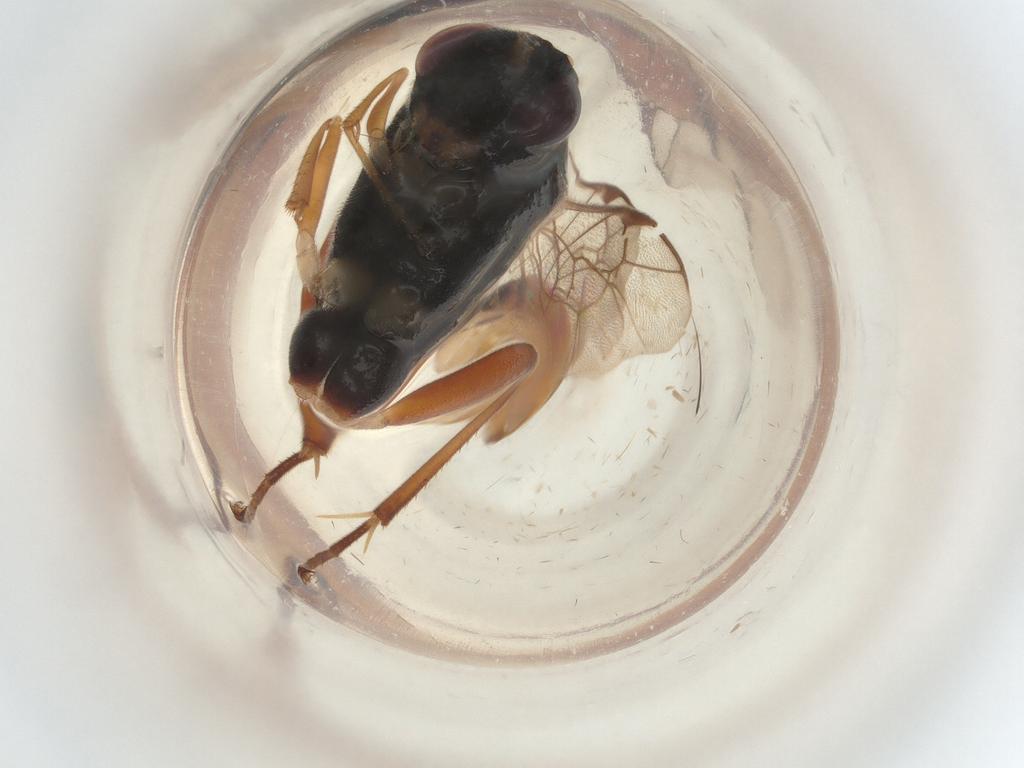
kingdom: Animalia
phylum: Arthropoda
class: Insecta
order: Hymenoptera
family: Ichneumonidae
